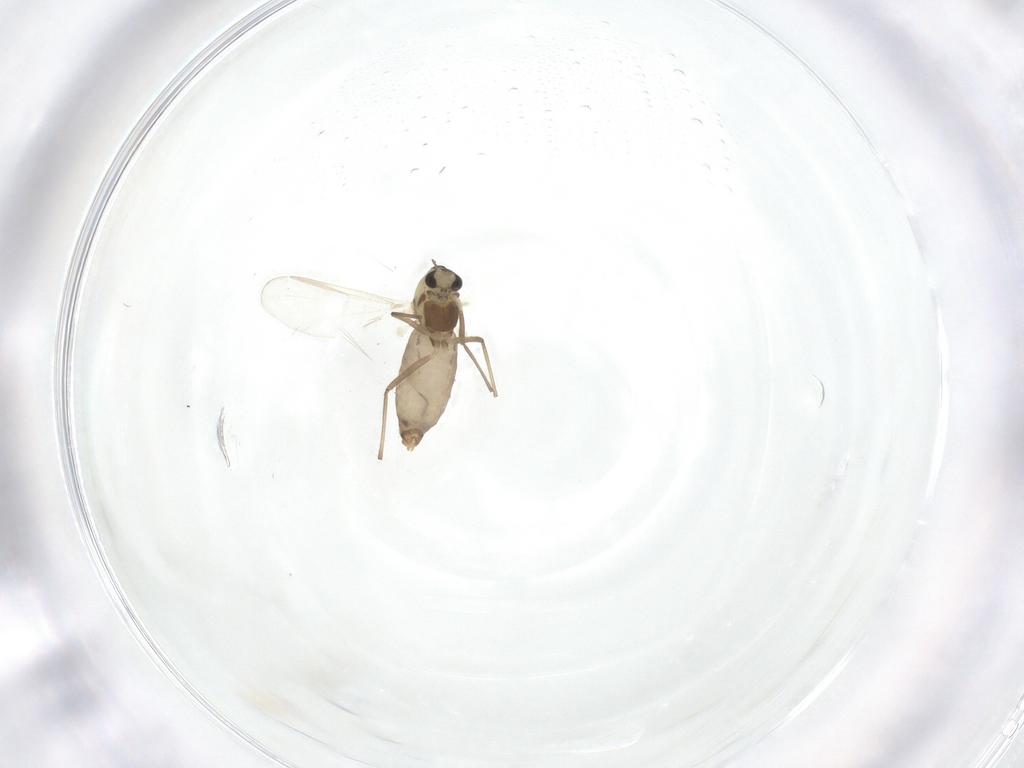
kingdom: Animalia
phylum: Arthropoda
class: Insecta
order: Diptera
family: Chironomidae
